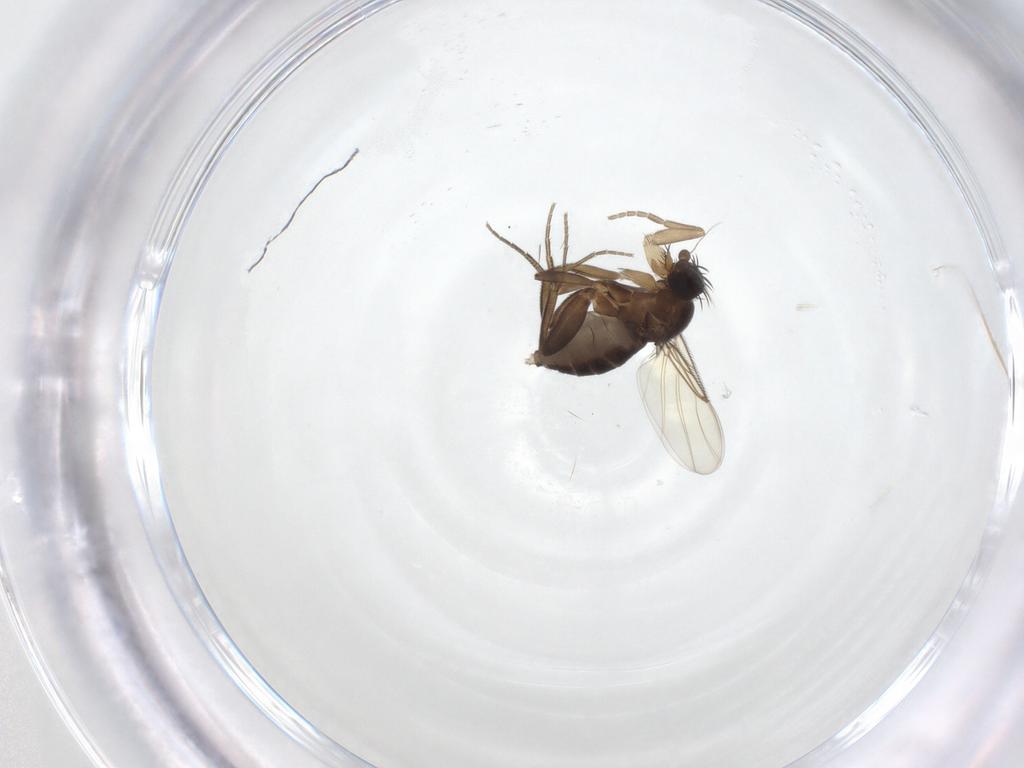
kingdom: Animalia
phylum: Arthropoda
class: Insecta
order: Diptera
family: Phoridae
